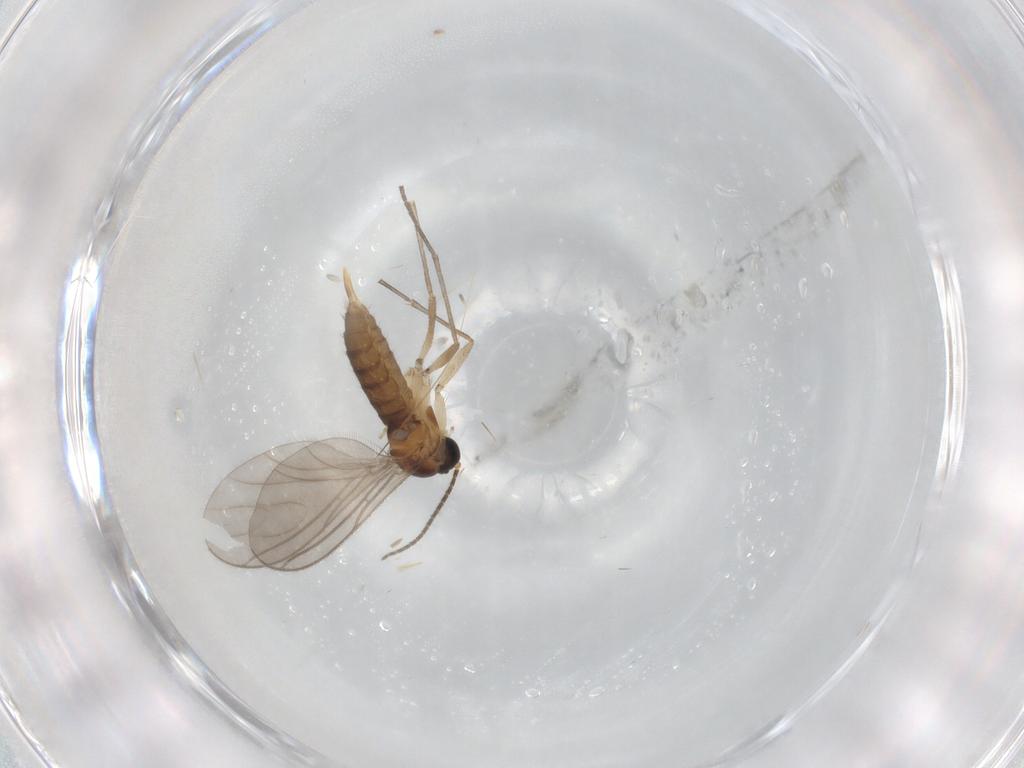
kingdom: Animalia
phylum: Arthropoda
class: Insecta
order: Diptera
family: Sciaridae
